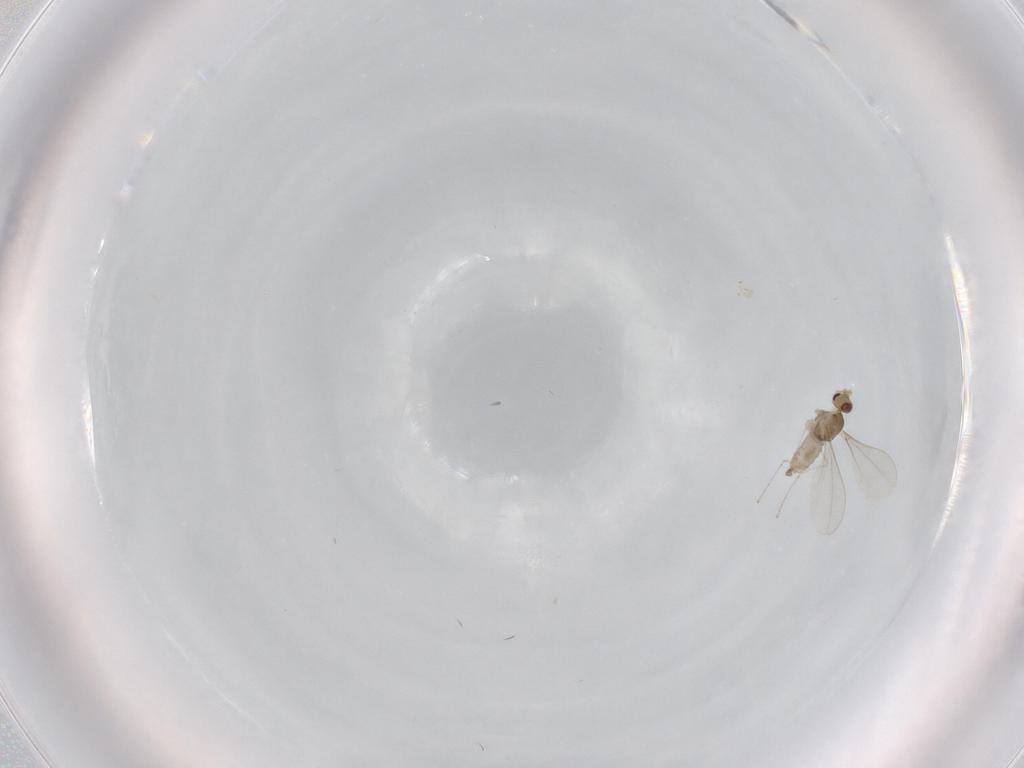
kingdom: Animalia
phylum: Arthropoda
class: Insecta
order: Diptera
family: Cecidomyiidae
